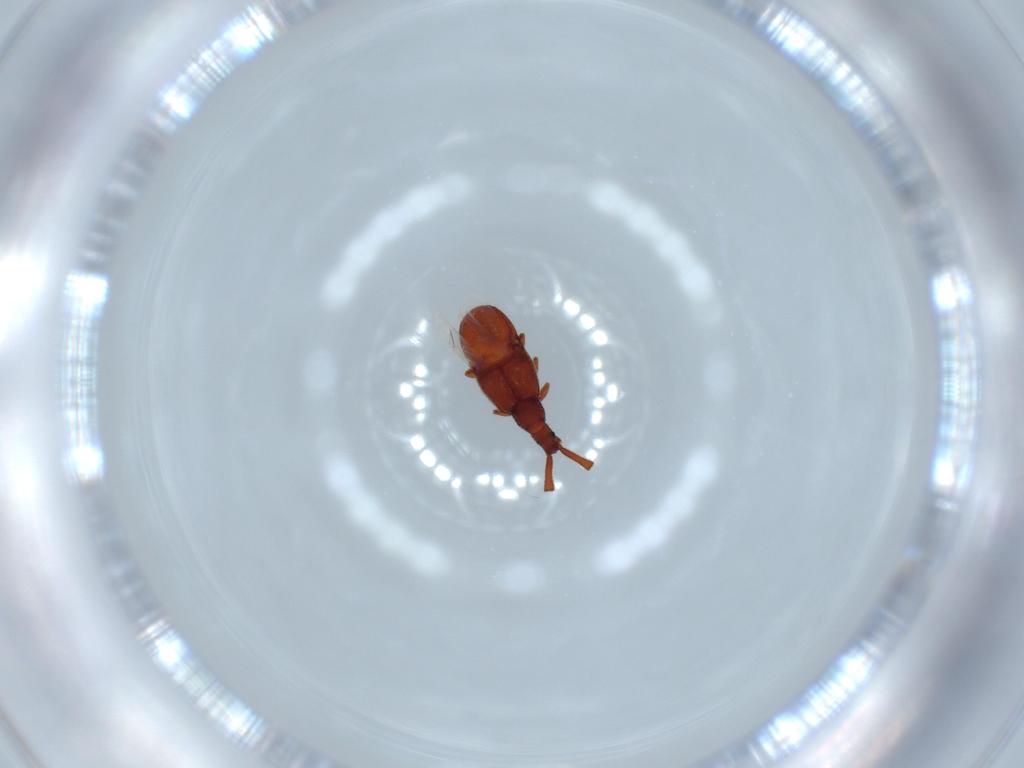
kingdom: Animalia
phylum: Arthropoda
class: Insecta
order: Coleoptera
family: Staphylinidae
